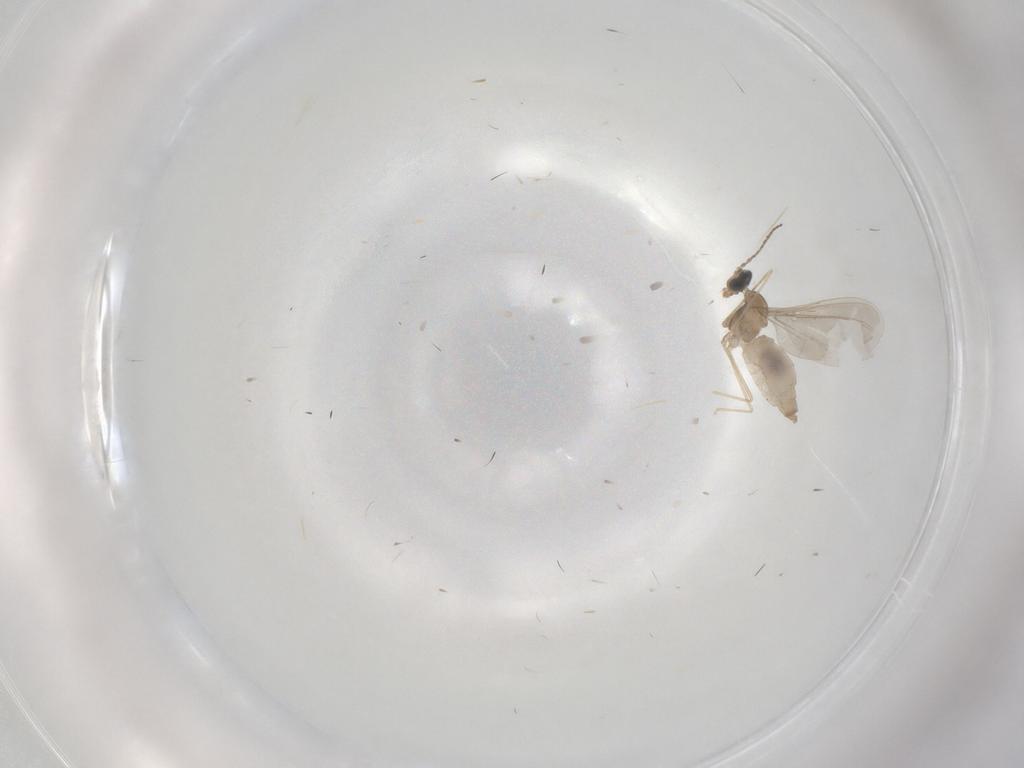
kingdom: Animalia
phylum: Arthropoda
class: Insecta
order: Diptera
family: Cecidomyiidae
